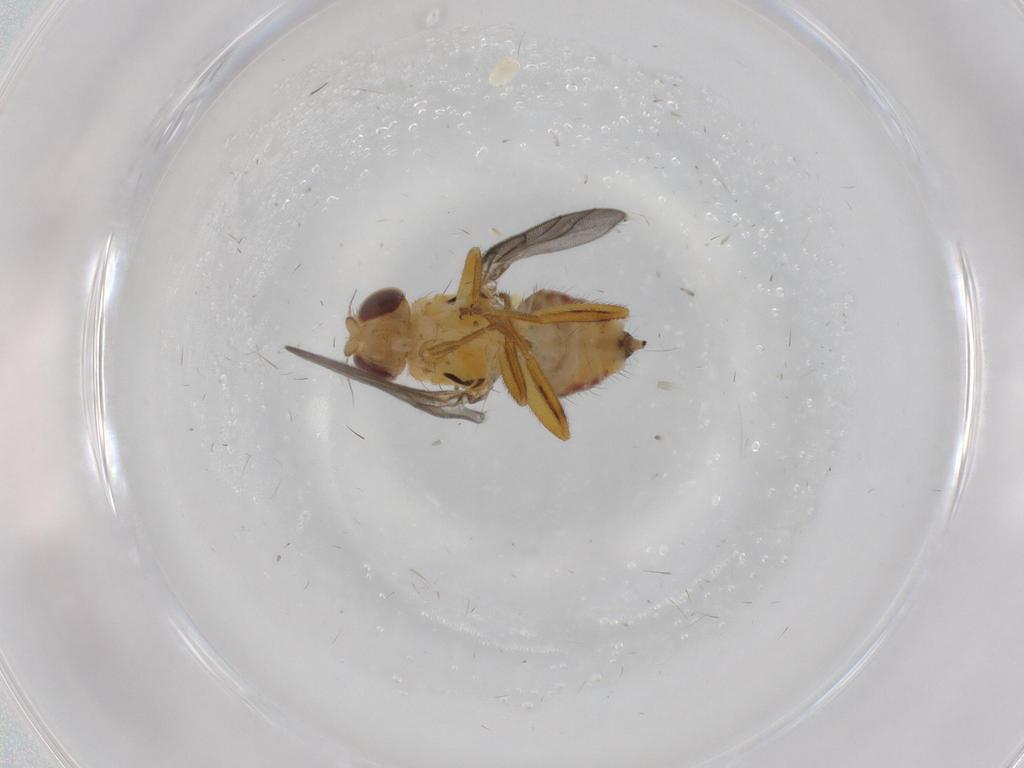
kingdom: Animalia
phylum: Arthropoda
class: Insecta
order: Diptera
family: Chloropidae
